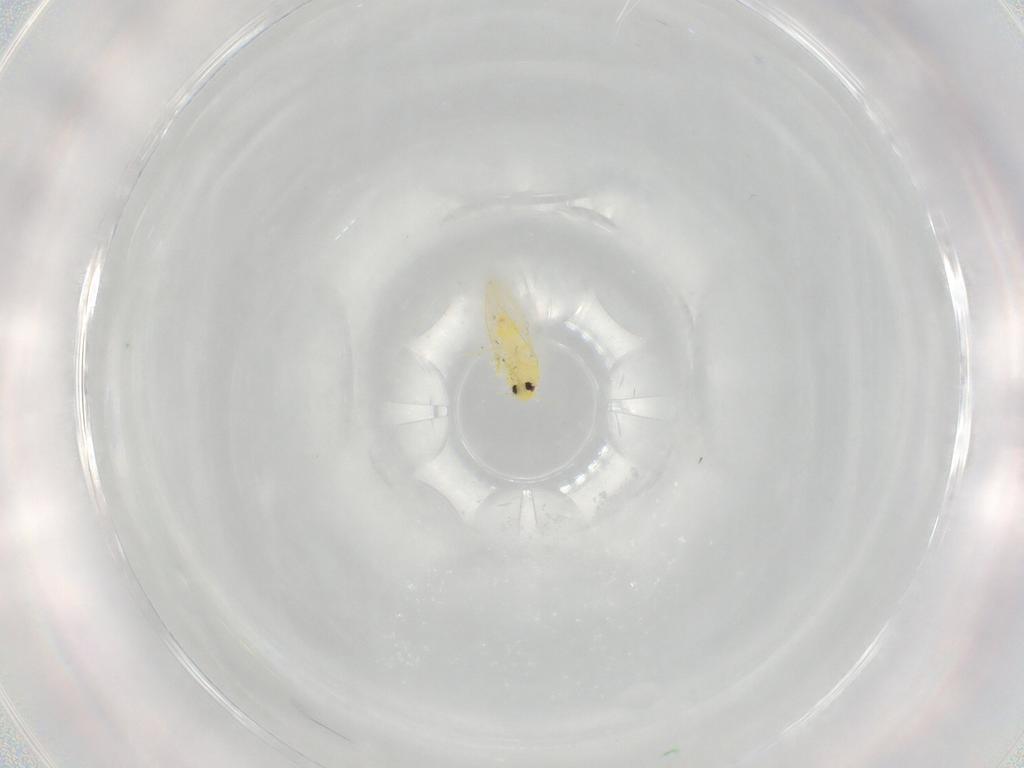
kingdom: Animalia
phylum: Arthropoda
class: Insecta
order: Hemiptera
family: Aleyrodidae
